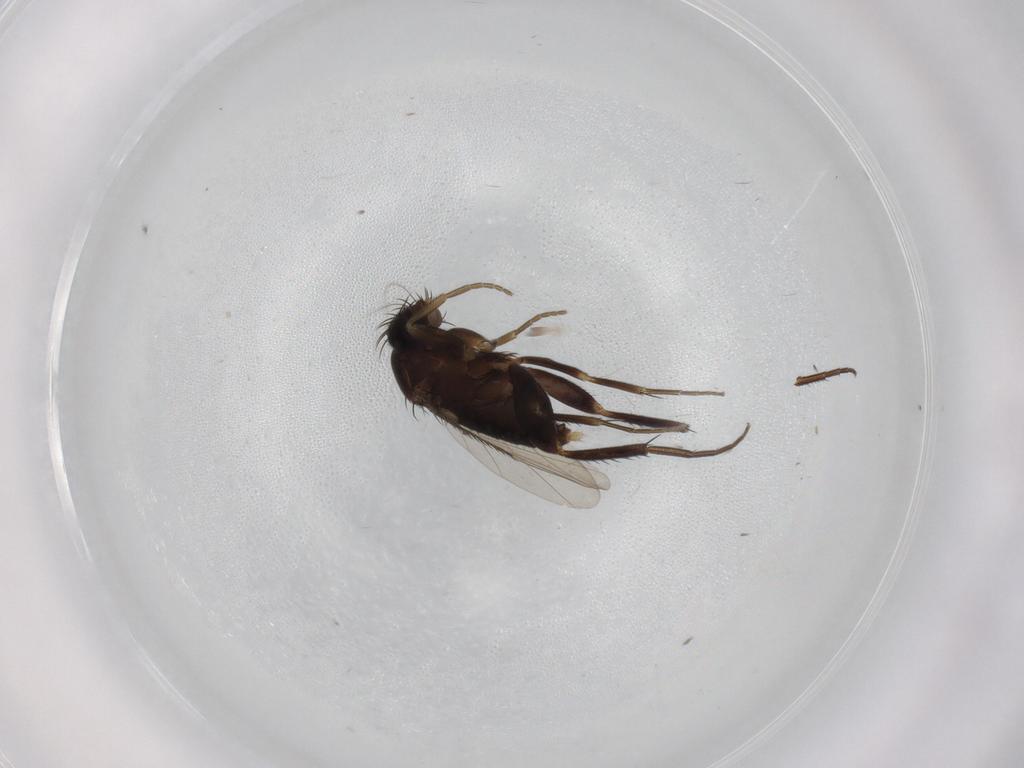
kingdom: Animalia
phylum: Arthropoda
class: Insecta
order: Diptera
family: Phoridae
